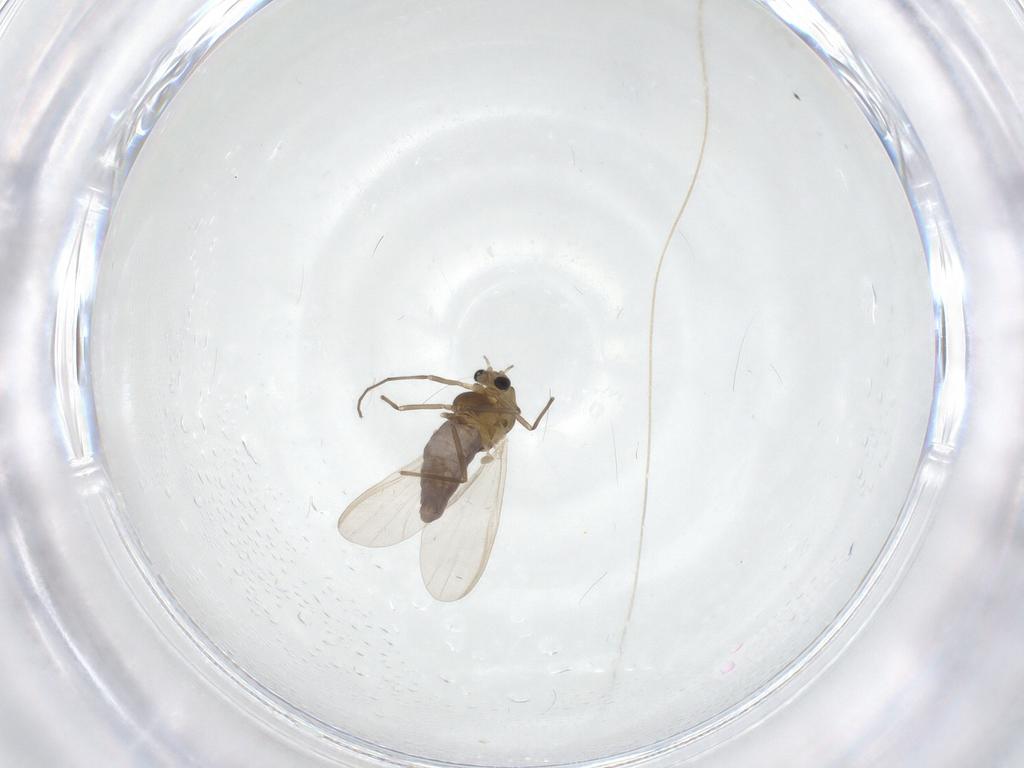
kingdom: Animalia
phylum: Arthropoda
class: Insecta
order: Diptera
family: Chironomidae
